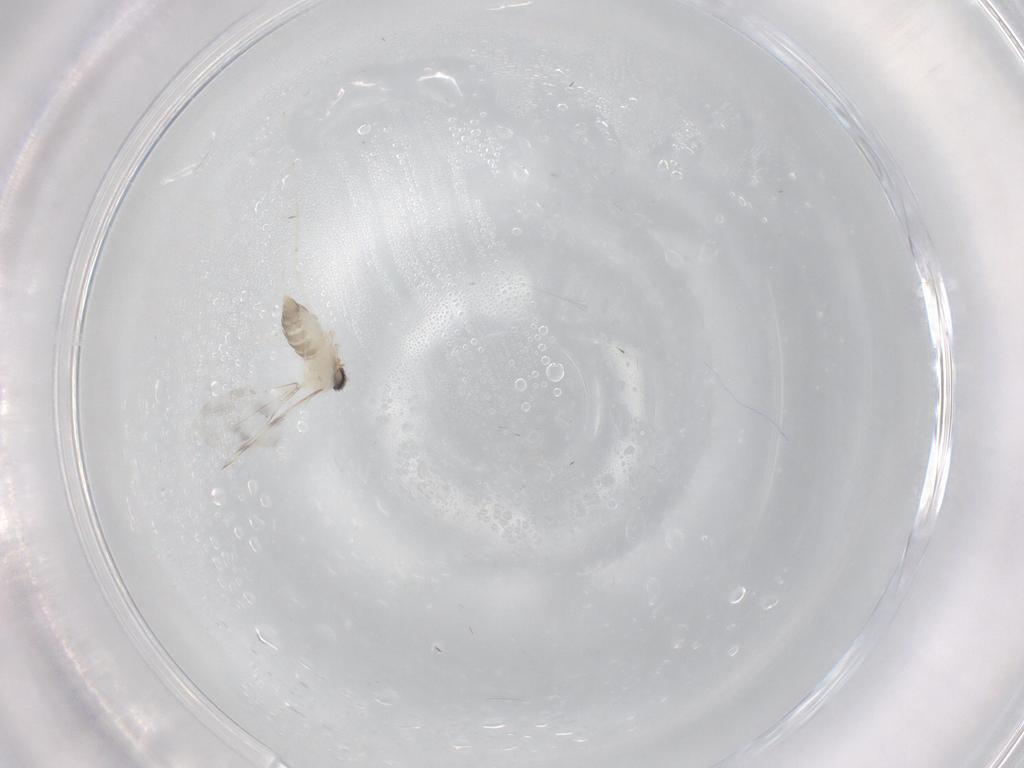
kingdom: Animalia
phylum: Arthropoda
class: Insecta
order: Diptera
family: Cecidomyiidae
